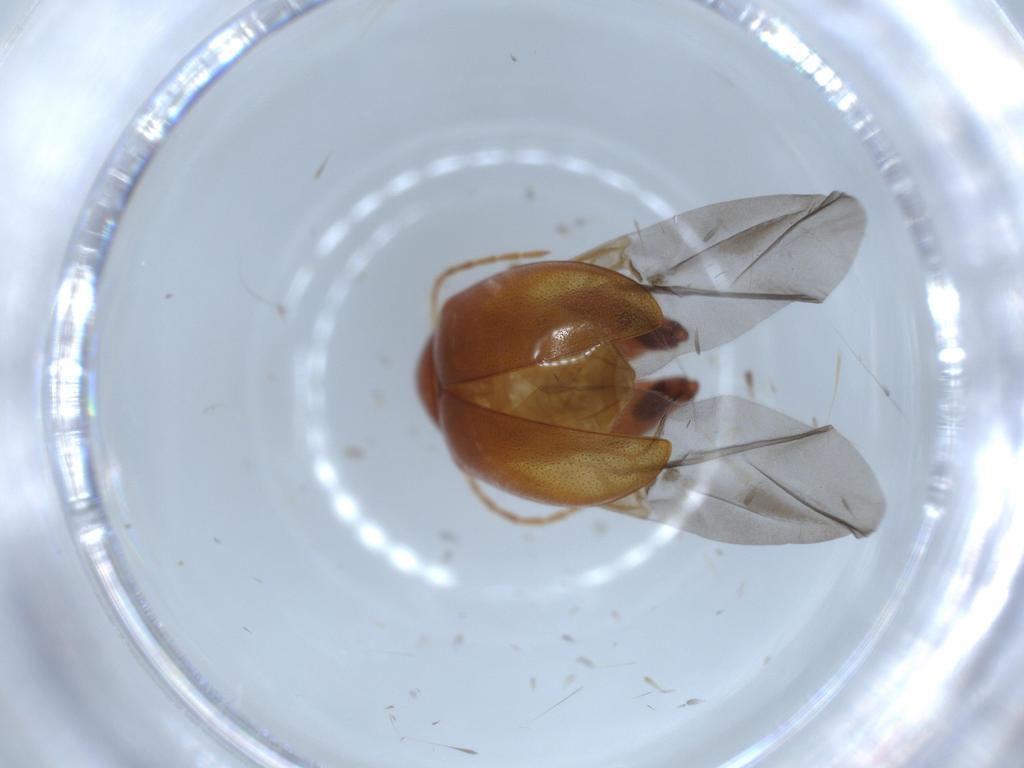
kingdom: Animalia
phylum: Arthropoda
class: Insecta
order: Coleoptera
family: Chrysomelidae
